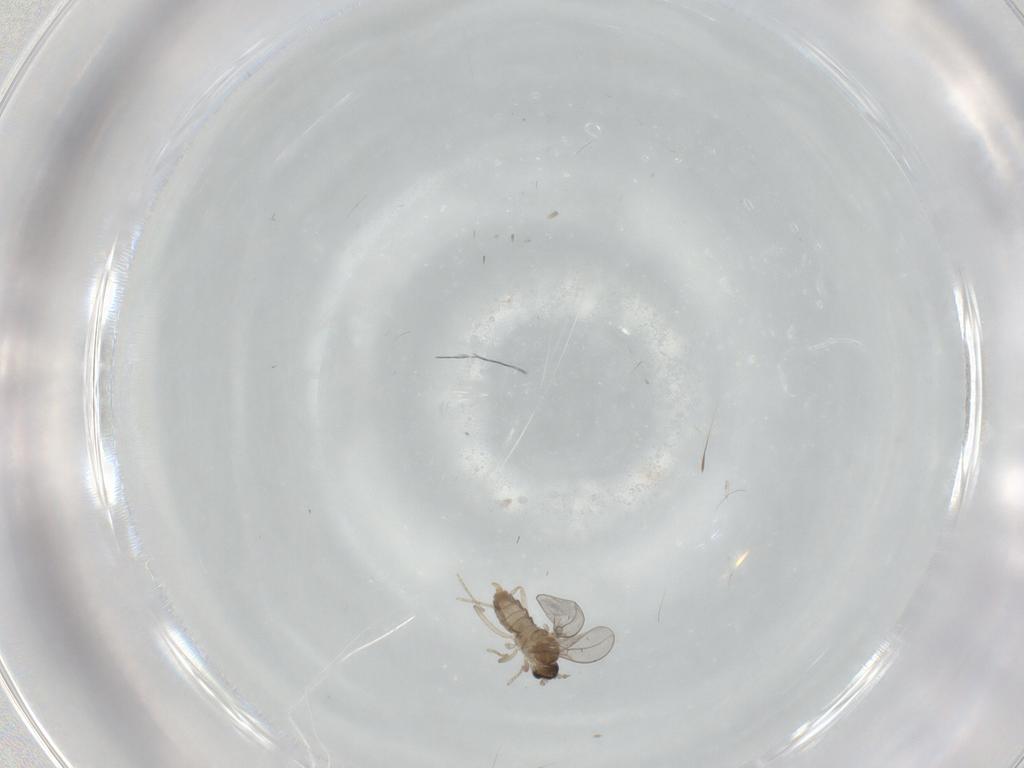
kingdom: Animalia
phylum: Arthropoda
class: Insecta
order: Diptera
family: Cecidomyiidae
